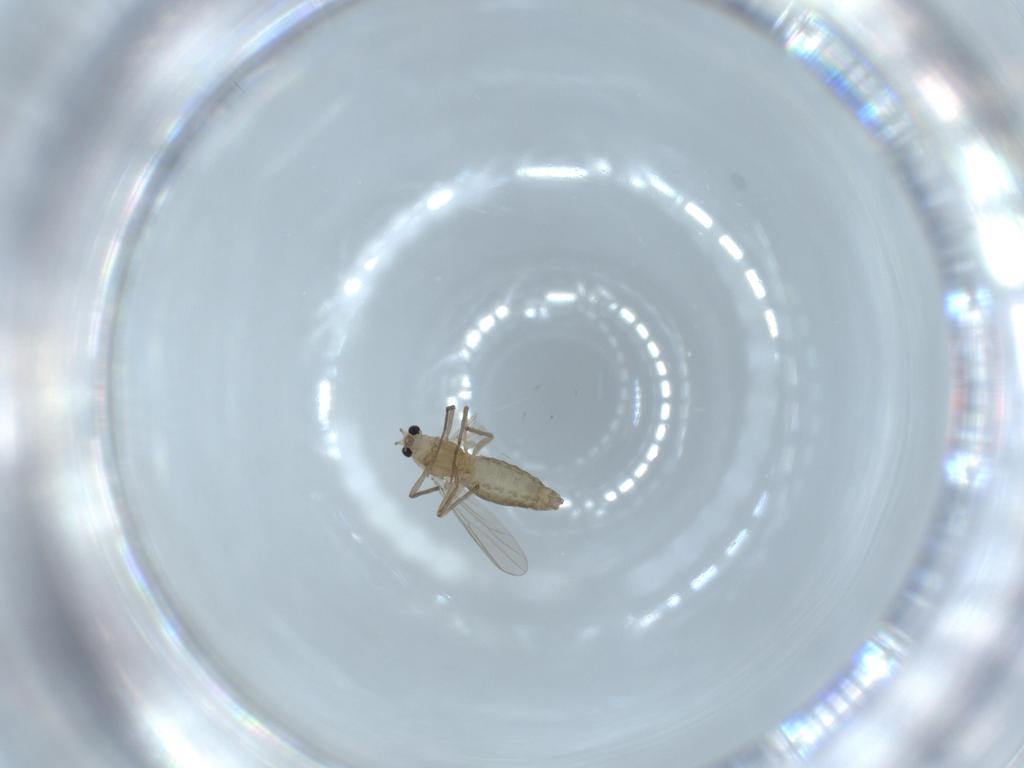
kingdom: Animalia
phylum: Arthropoda
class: Insecta
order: Diptera
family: Chironomidae
